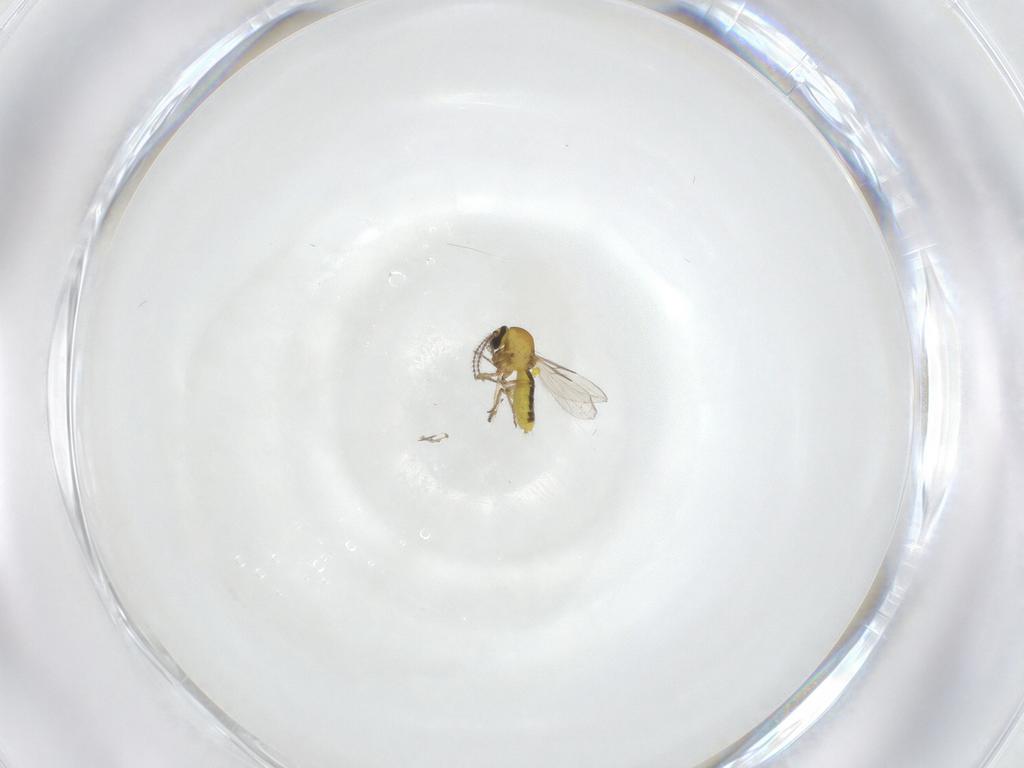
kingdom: Animalia
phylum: Arthropoda
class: Insecta
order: Diptera
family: Ceratopogonidae
